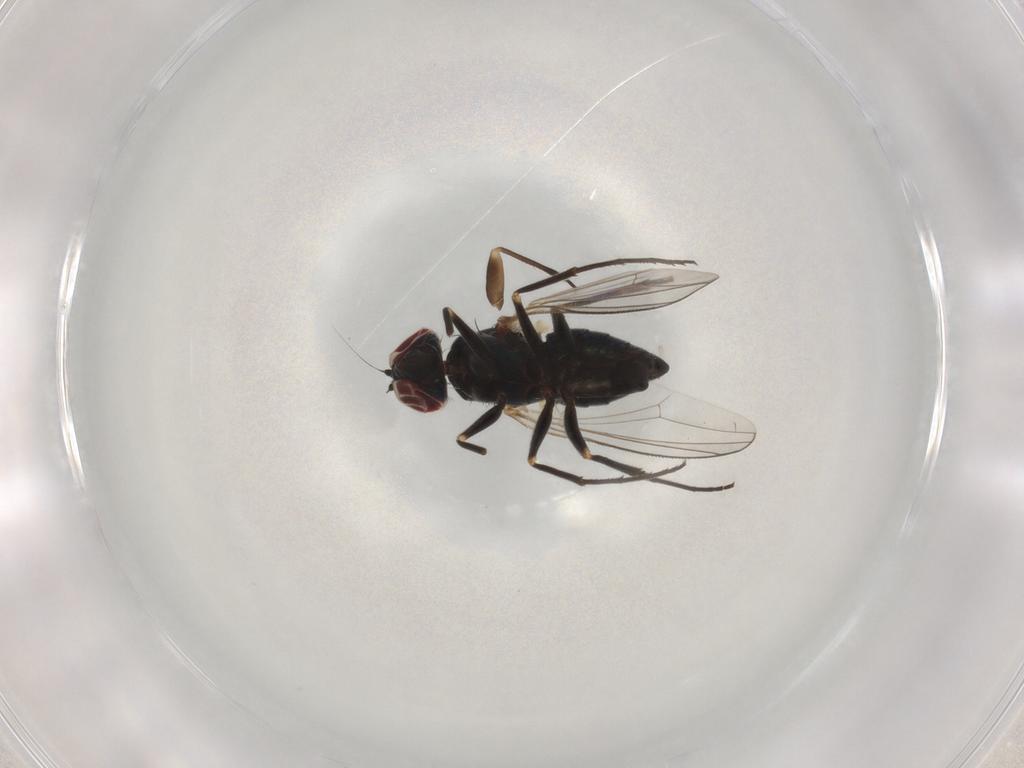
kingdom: Animalia
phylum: Arthropoda
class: Insecta
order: Diptera
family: Dolichopodidae
